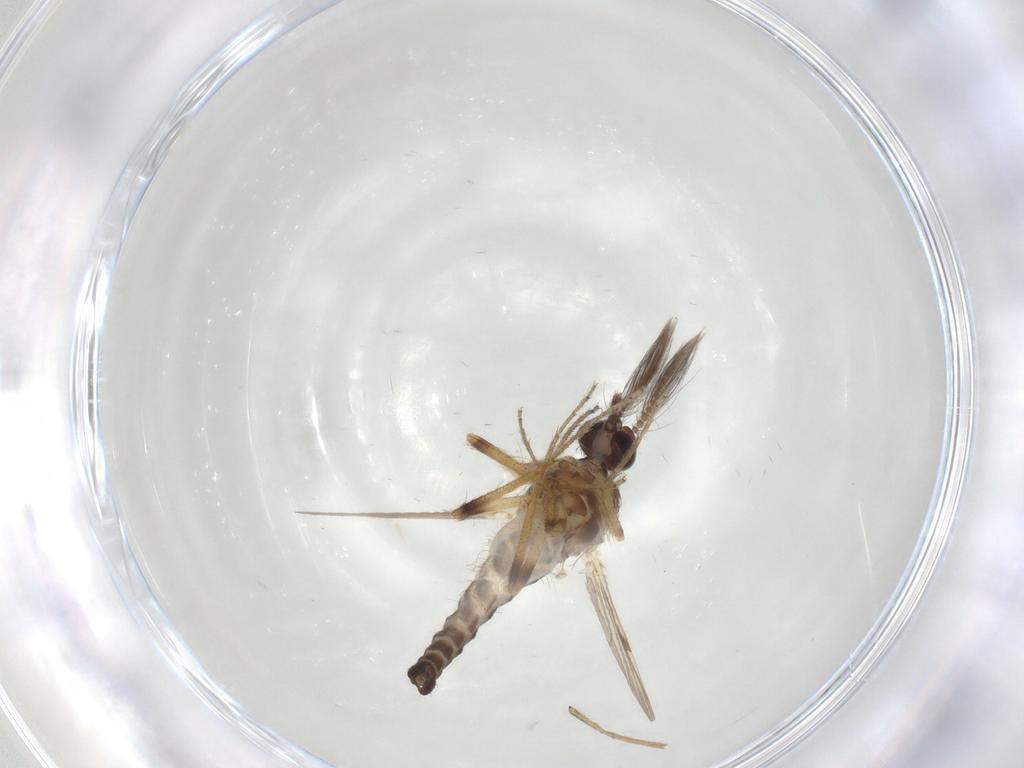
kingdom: Animalia
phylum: Arthropoda
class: Insecta
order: Diptera
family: Ceratopogonidae
